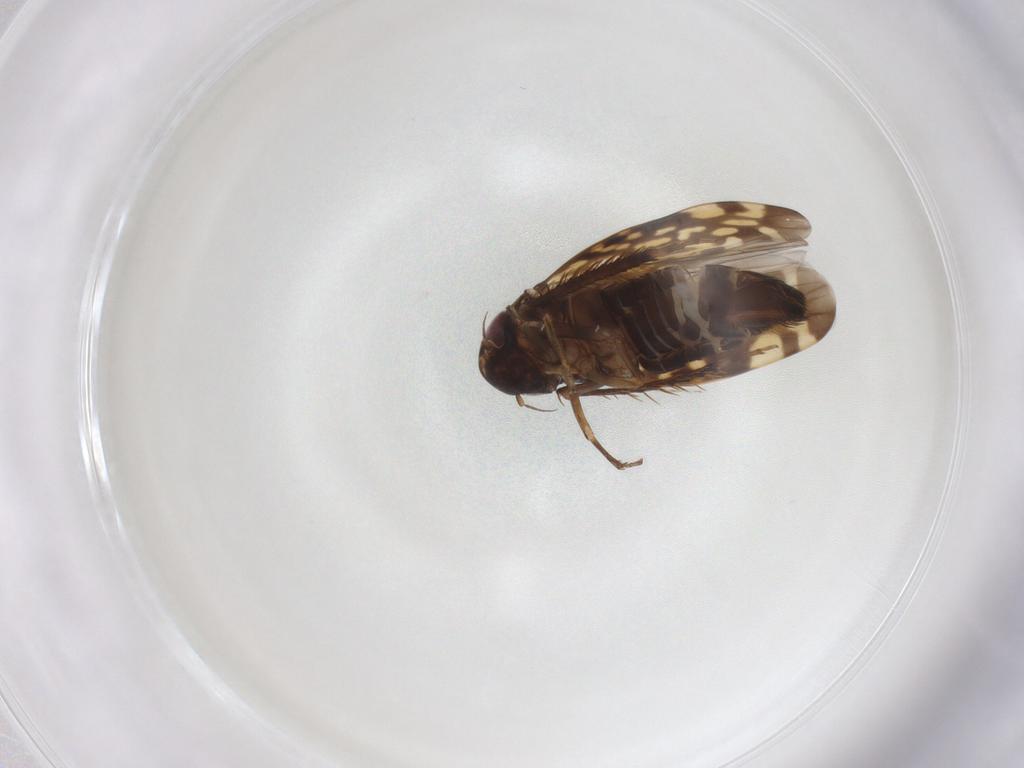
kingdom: Animalia
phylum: Arthropoda
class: Insecta
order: Hemiptera
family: Cicadellidae
